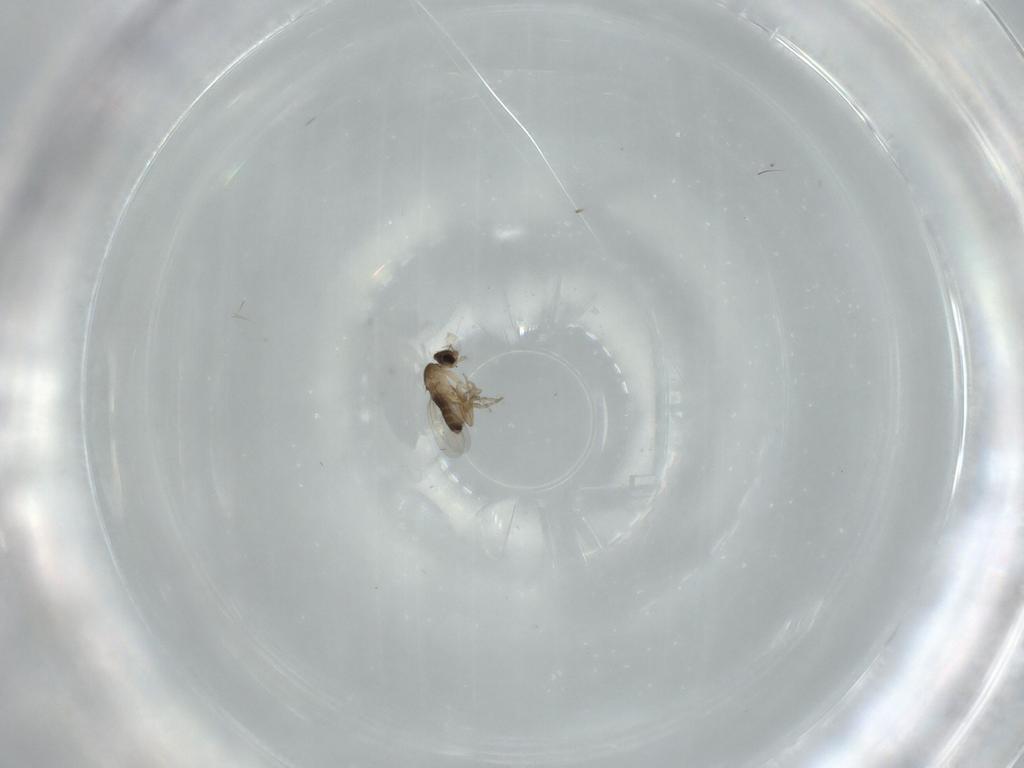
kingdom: Animalia
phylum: Arthropoda
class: Insecta
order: Diptera
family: Phoridae
